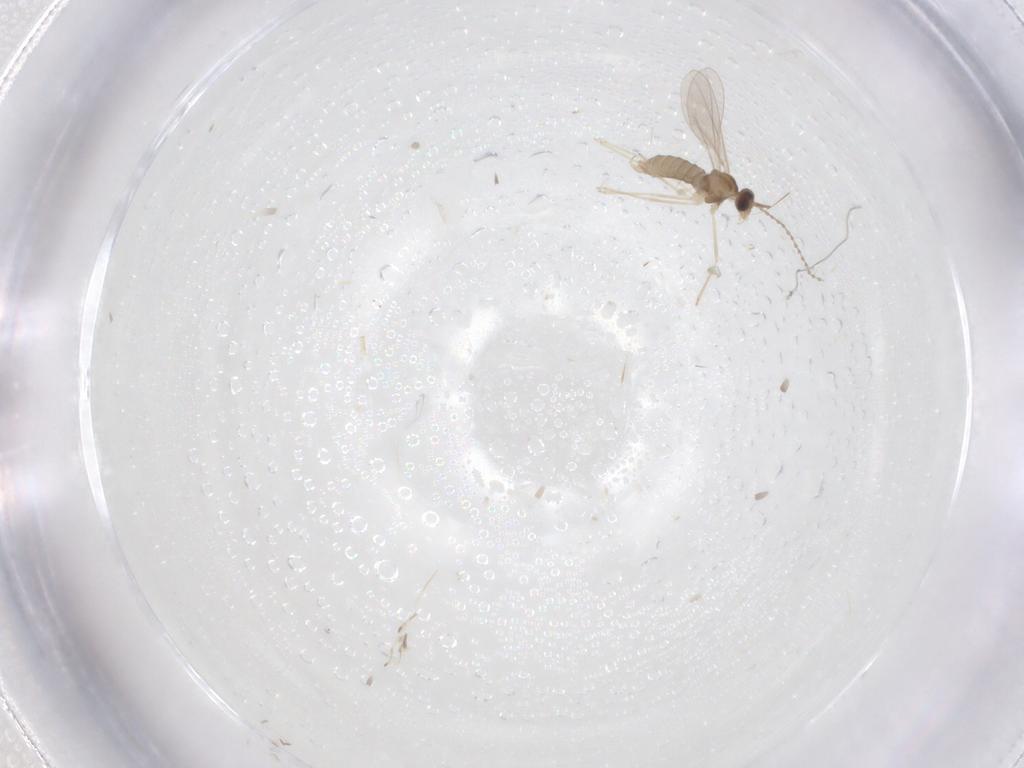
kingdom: Animalia
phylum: Arthropoda
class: Insecta
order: Diptera
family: Cecidomyiidae
